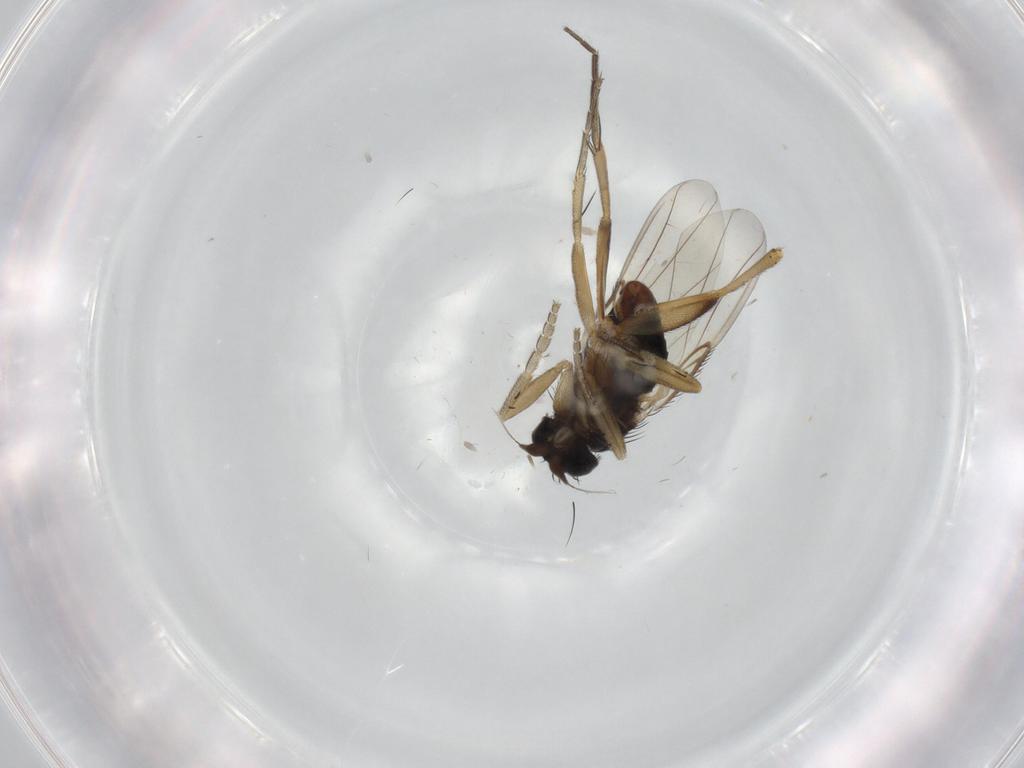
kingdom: Animalia
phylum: Arthropoda
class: Insecta
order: Diptera
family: Phoridae
